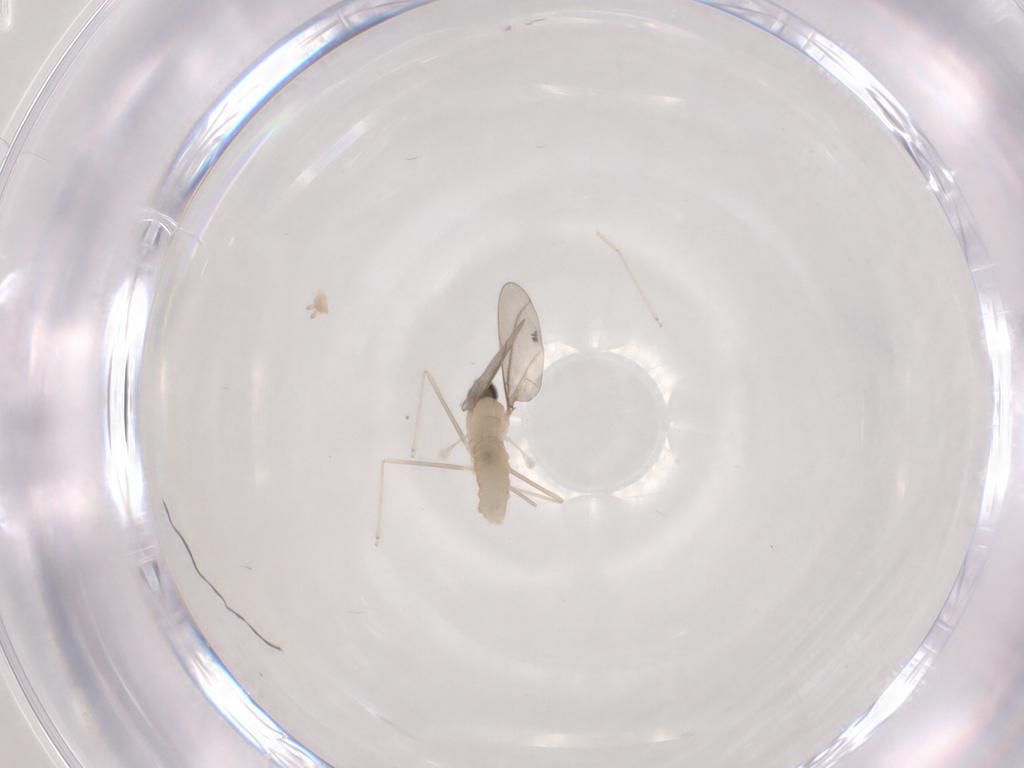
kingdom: Animalia
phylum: Arthropoda
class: Insecta
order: Diptera
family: Cecidomyiidae
